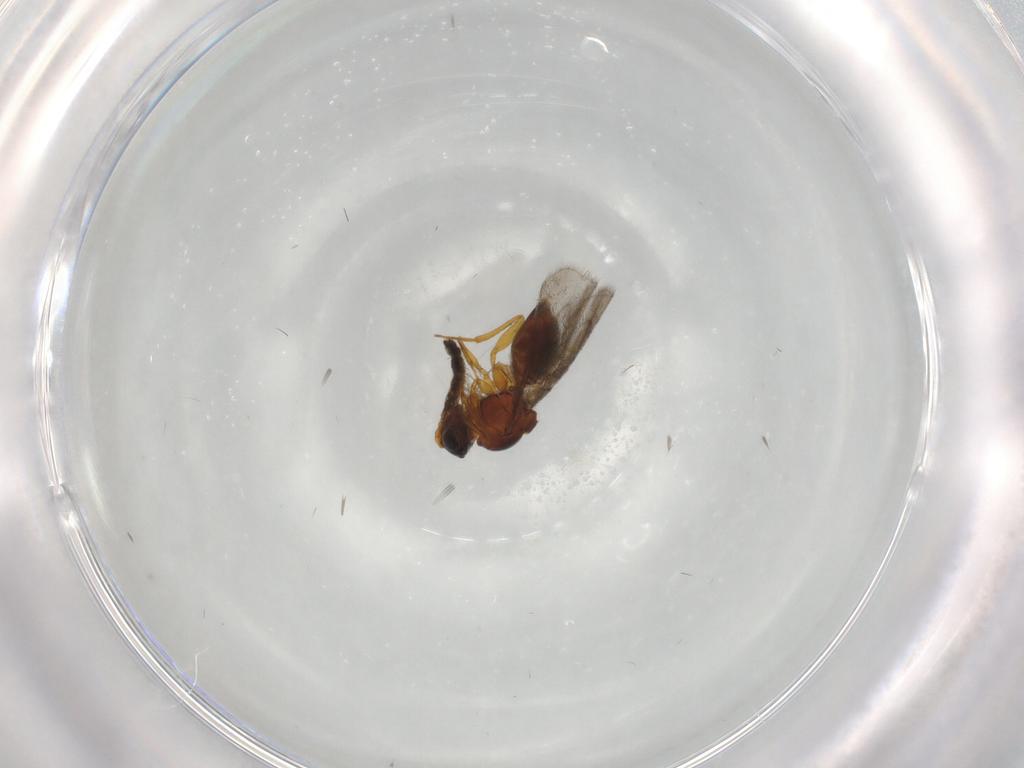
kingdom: Animalia
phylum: Arthropoda
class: Insecta
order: Hymenoptera
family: Figitidae
